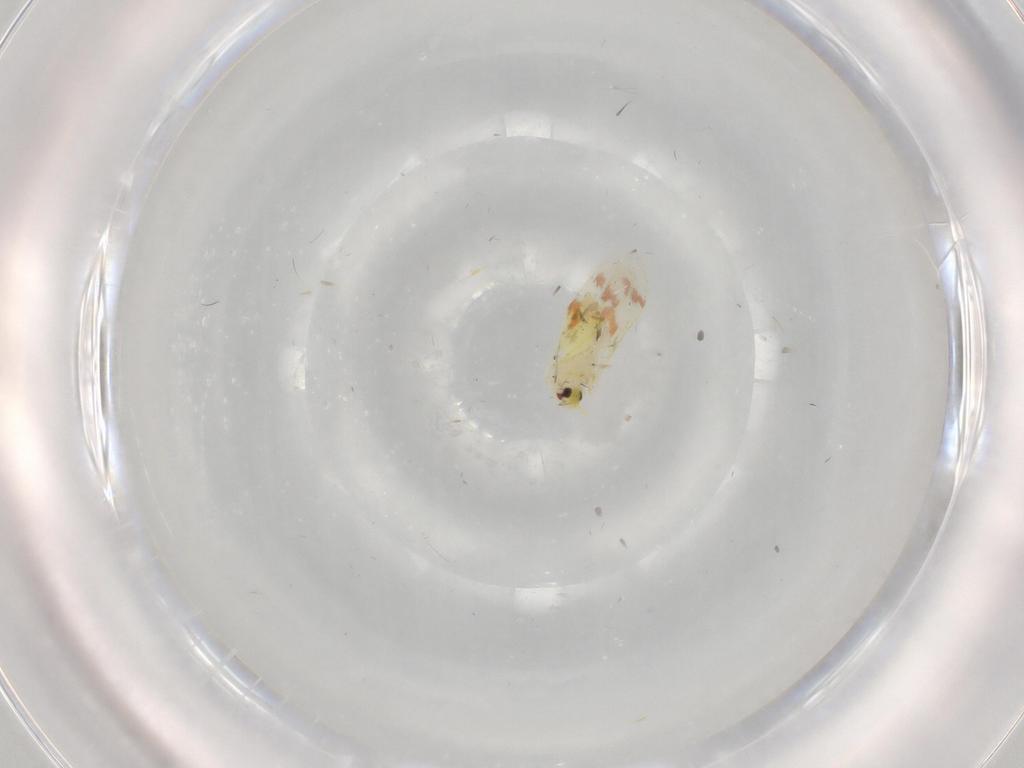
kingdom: Animalia
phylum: Arthropoda
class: Insecta
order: Hemiptera
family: Aleyrodidae
